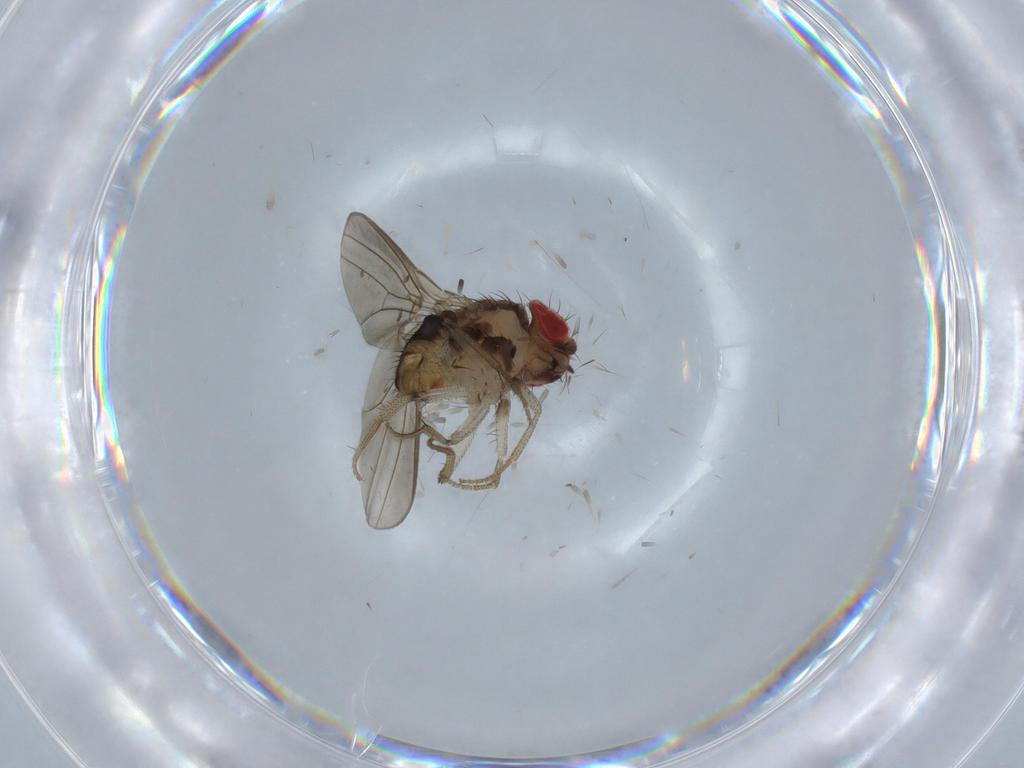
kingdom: Animalia
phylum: Arthropoda
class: Insecta
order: Diptera
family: Drosophilidae
